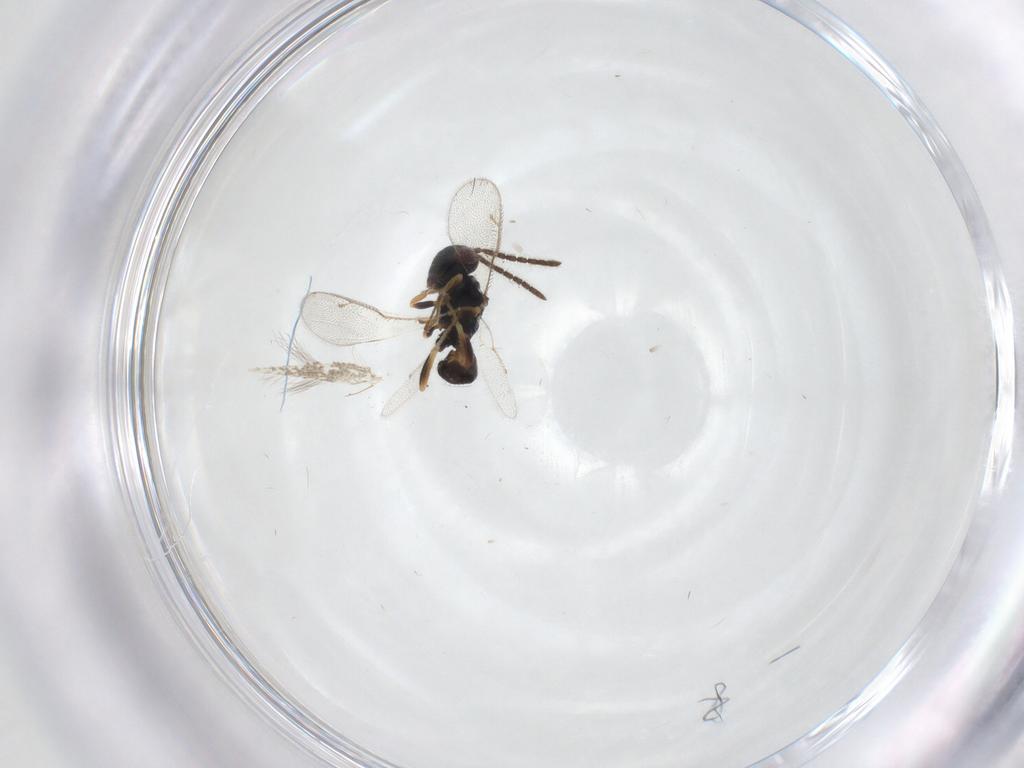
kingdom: Animalia
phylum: Arthropoda
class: Insecta
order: Hymenoptera
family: Pteromalidae
